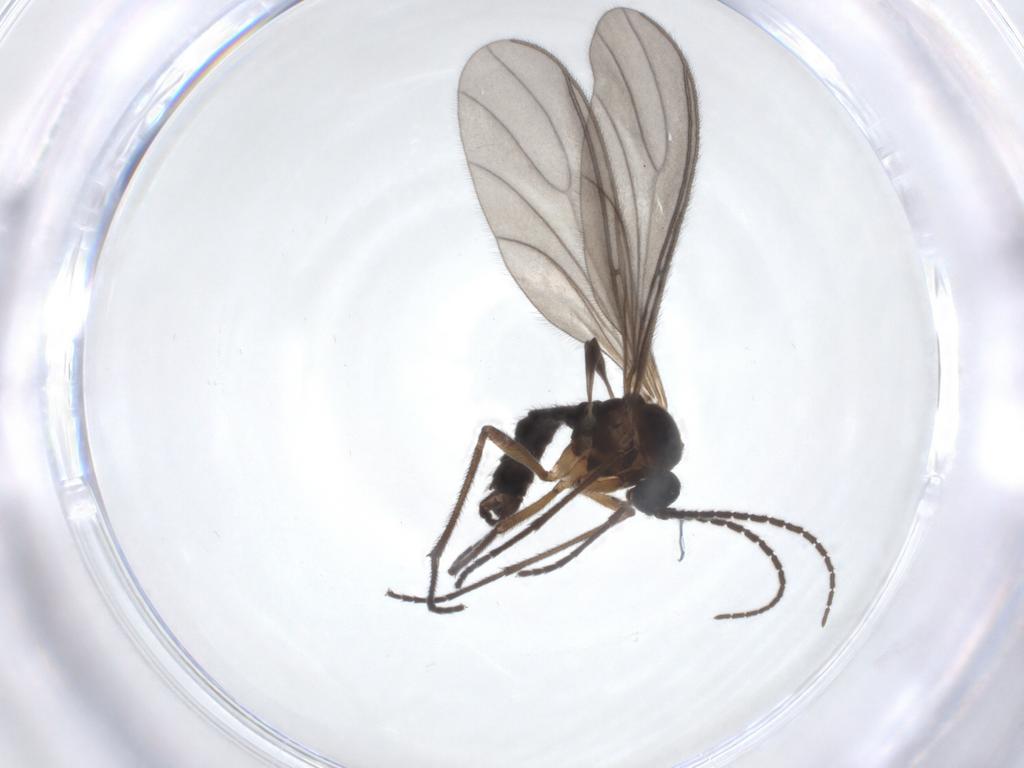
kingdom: Animalia
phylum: Arthropoda
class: Insecta
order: Diptera
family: Sciaridae
